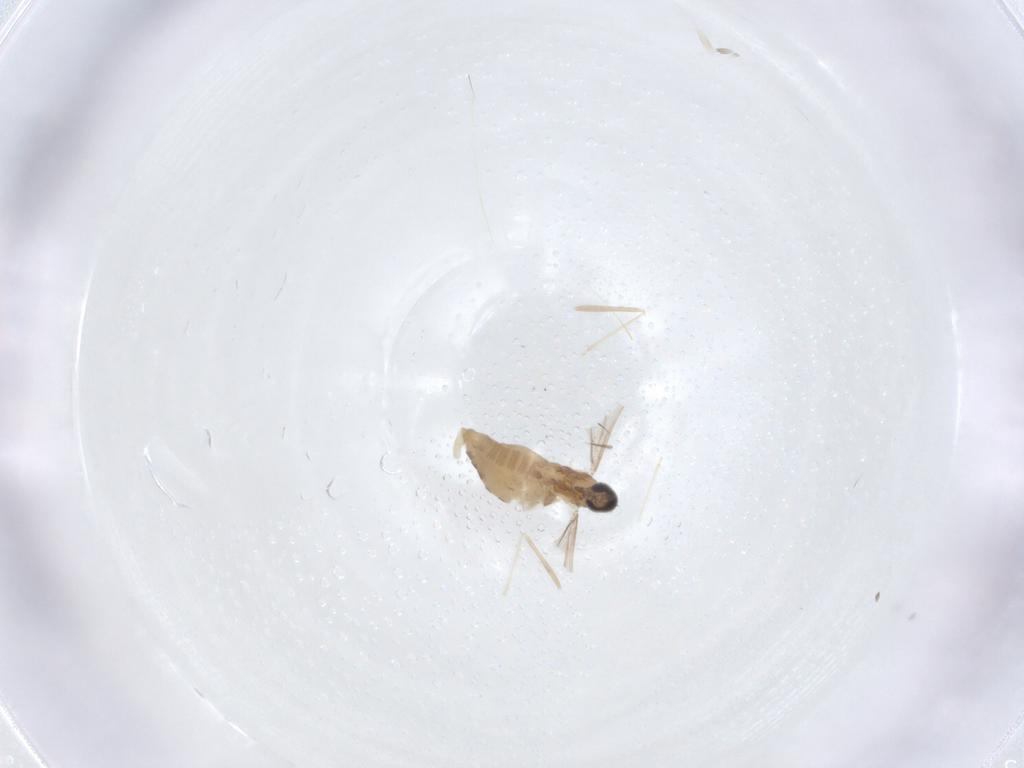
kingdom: Animalia
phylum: Arthropoda
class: Insecta
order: Diptera
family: Cecidomyiidae
